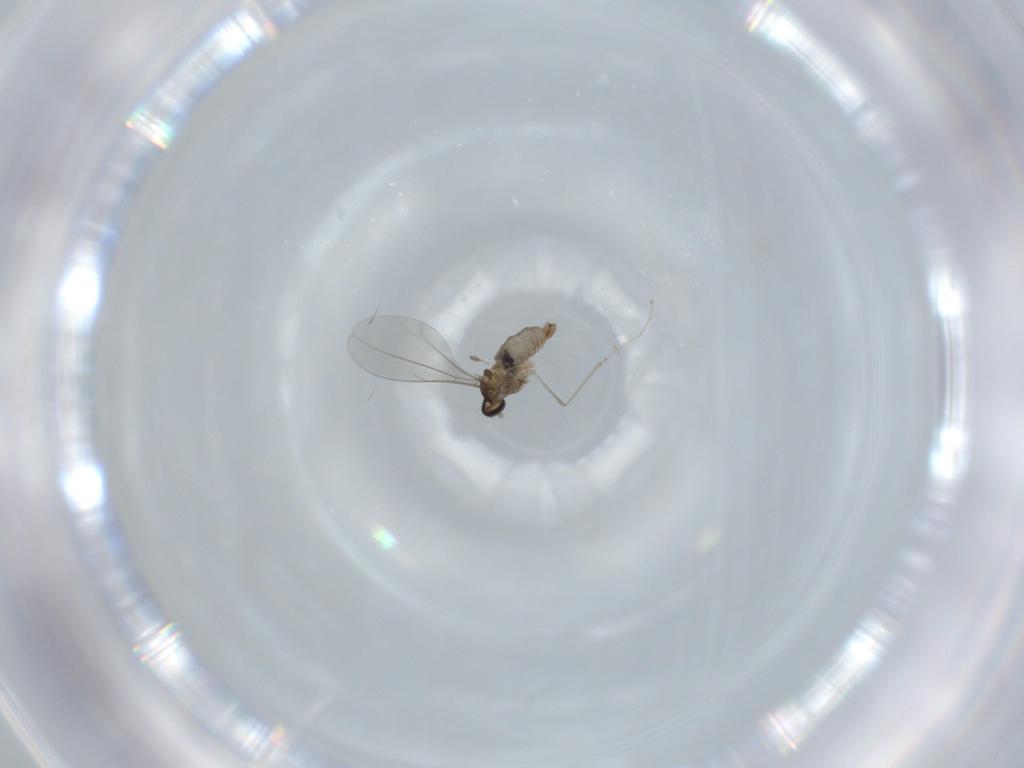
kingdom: Animalia
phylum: Arthropoda
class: Insecta
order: Diptera
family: Cecidomyiidae
